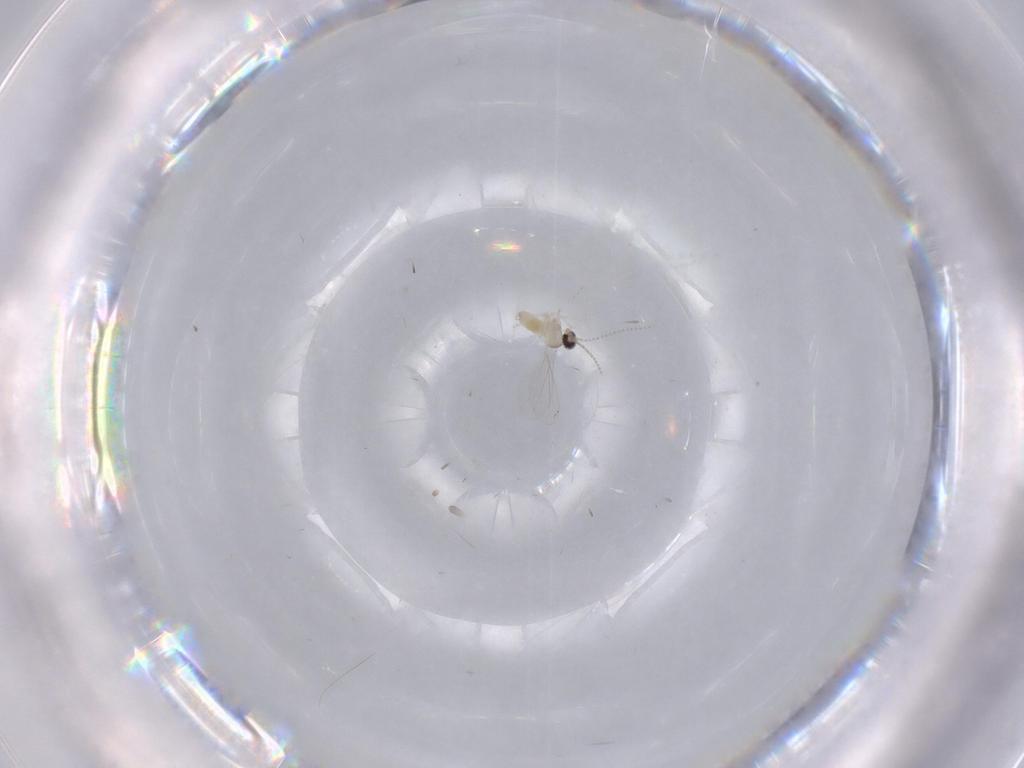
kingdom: Animalia
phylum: Arthropoda
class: Insecta
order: Diptera
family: Cecidomyiidae
